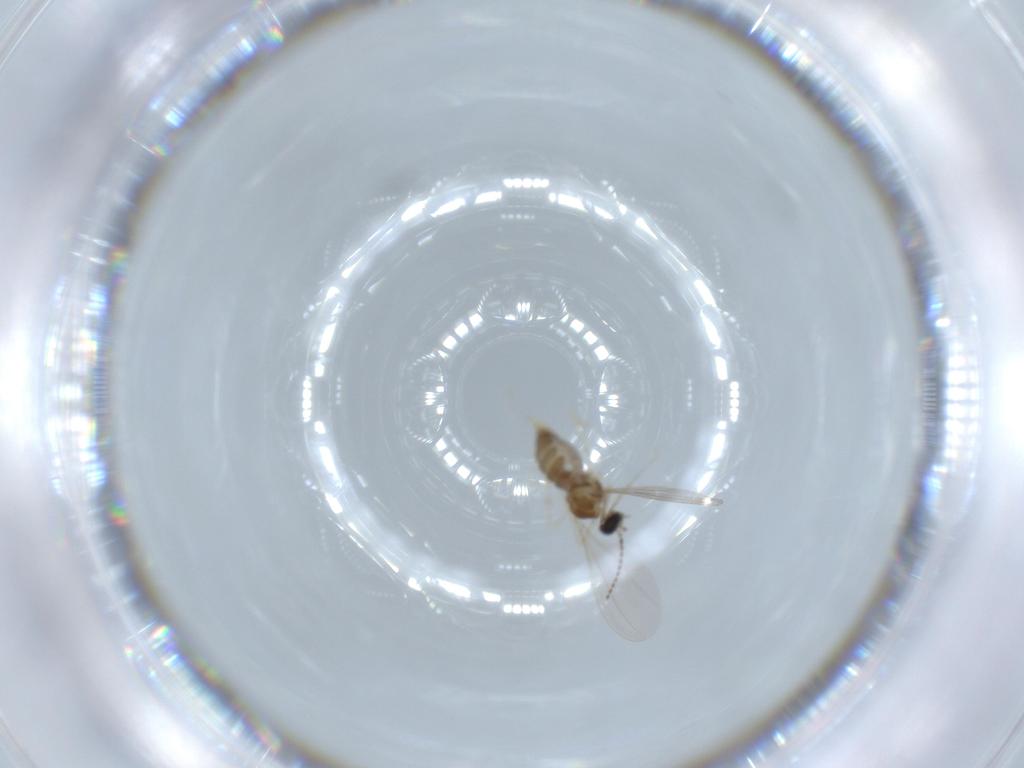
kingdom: Animalia
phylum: Arthropoda
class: Insecta
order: Diptera
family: Cecidomyiidae
